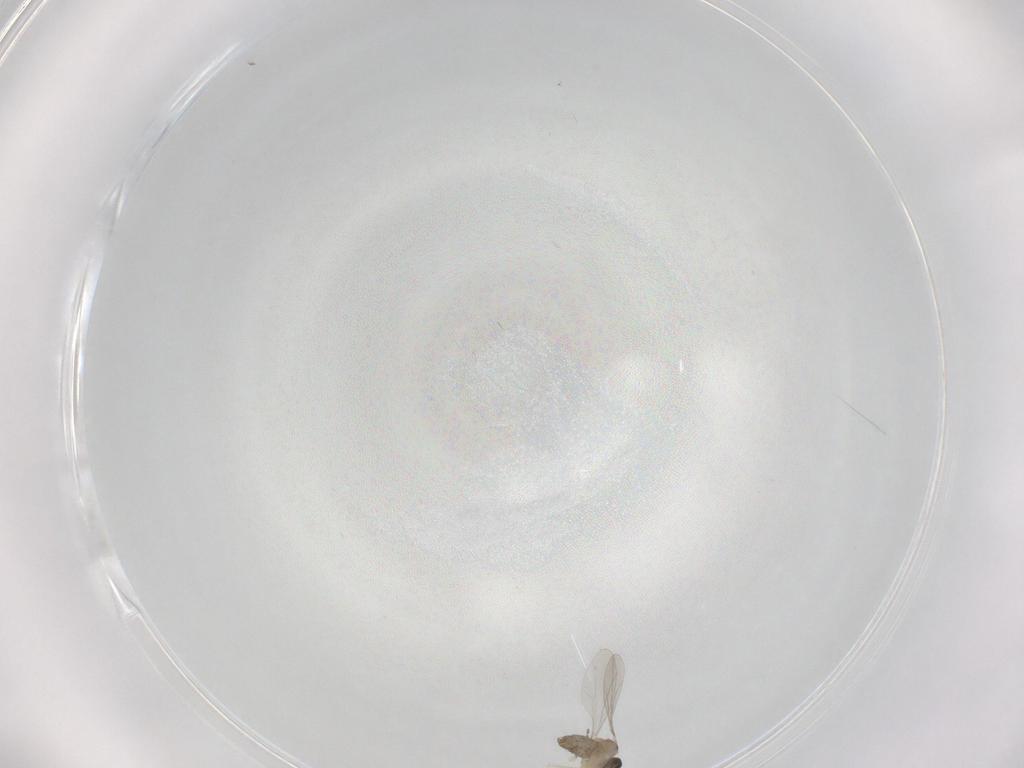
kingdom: Animalia
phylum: Arthropoda
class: Insecta
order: Diptera
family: Cecidomyiidae
